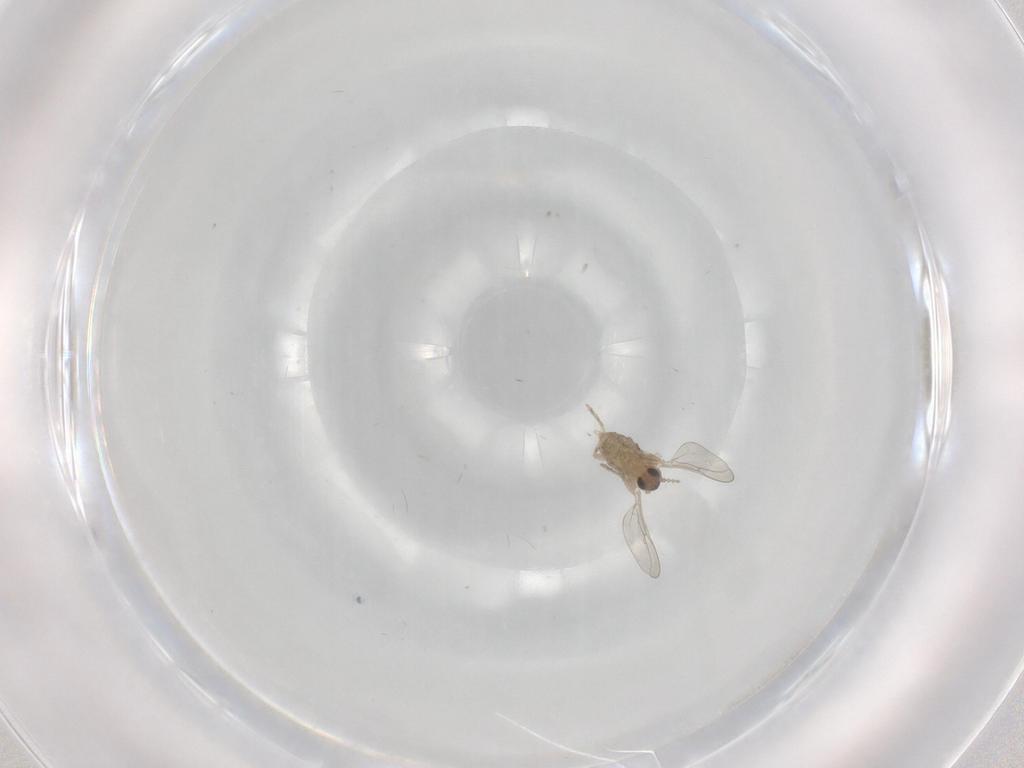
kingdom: Animalia
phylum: Arthropoda
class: Insecta
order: Diptera
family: Cecidomyiidae
